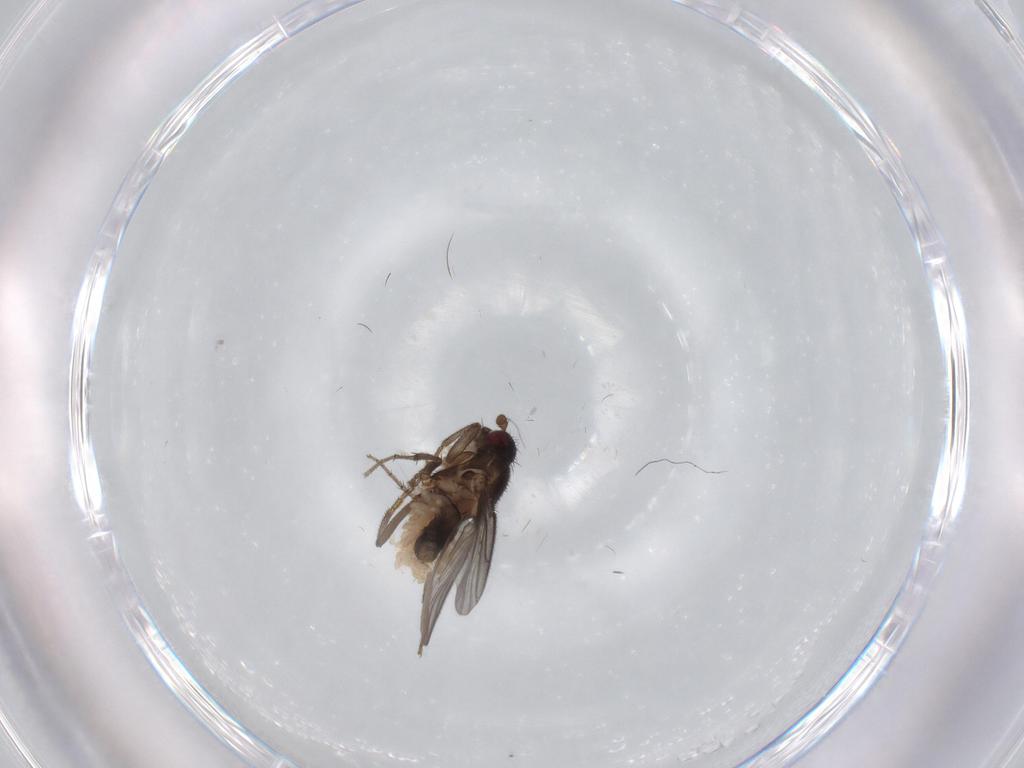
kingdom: Animalia
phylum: Arthropoda
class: Insecta
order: Diptera
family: Sphaeroceridae
